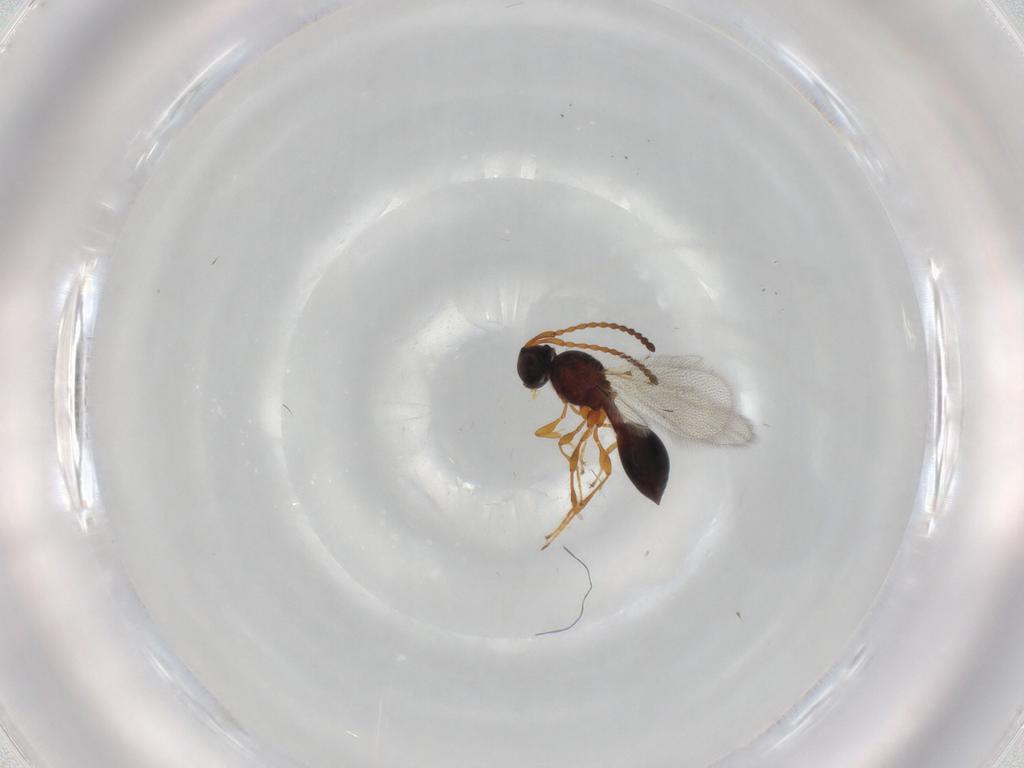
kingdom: Animalia
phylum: Arthropoda
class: Insecta
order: Hymenoptera
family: Diapriidae
